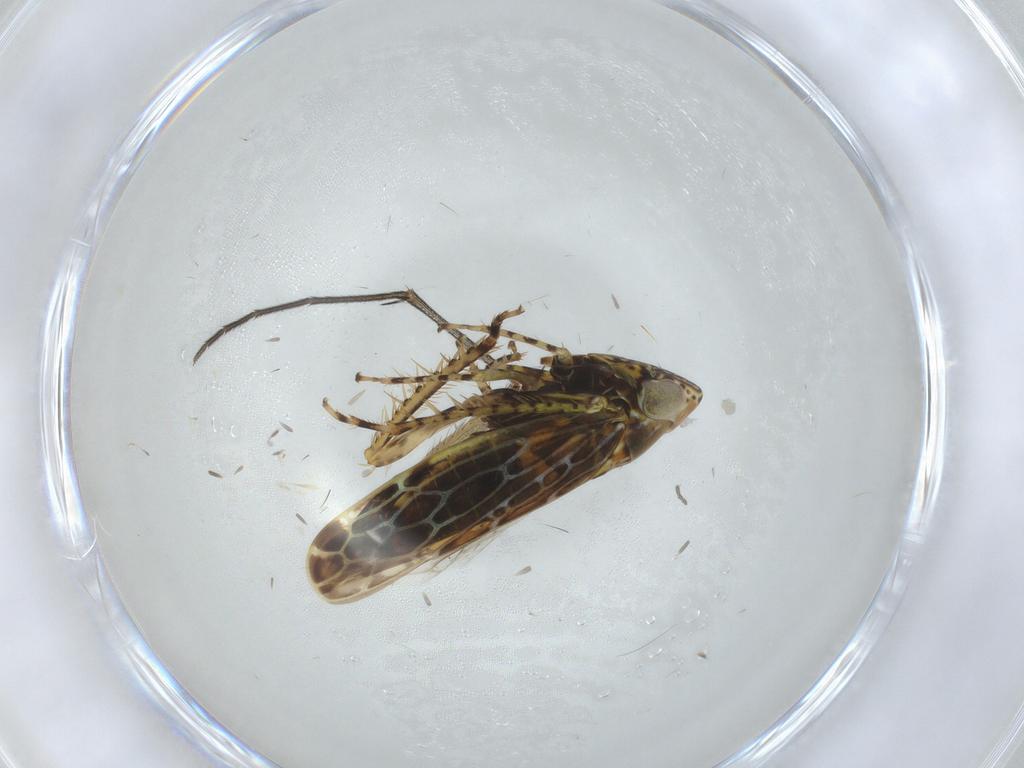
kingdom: Animalia
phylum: Arthropoda
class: Insecta
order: Hemiptera
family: Cicadellidae
